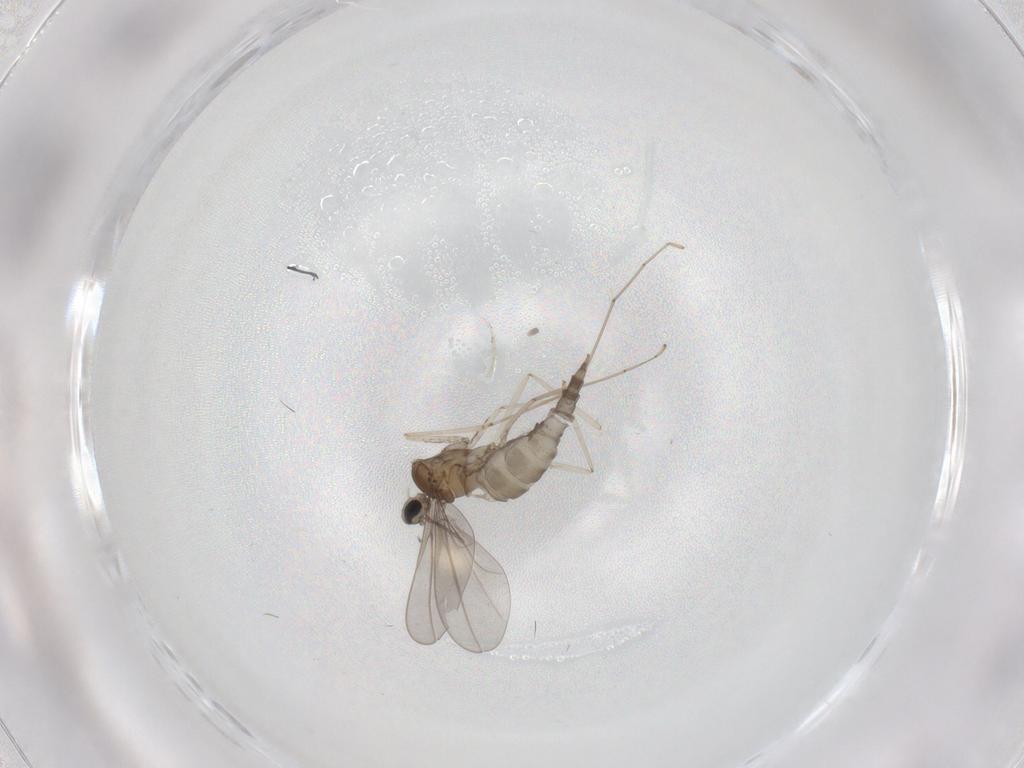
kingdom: Animalia
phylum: Arthropoda
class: Insecta
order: Diptera
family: Cecidomyiidae
